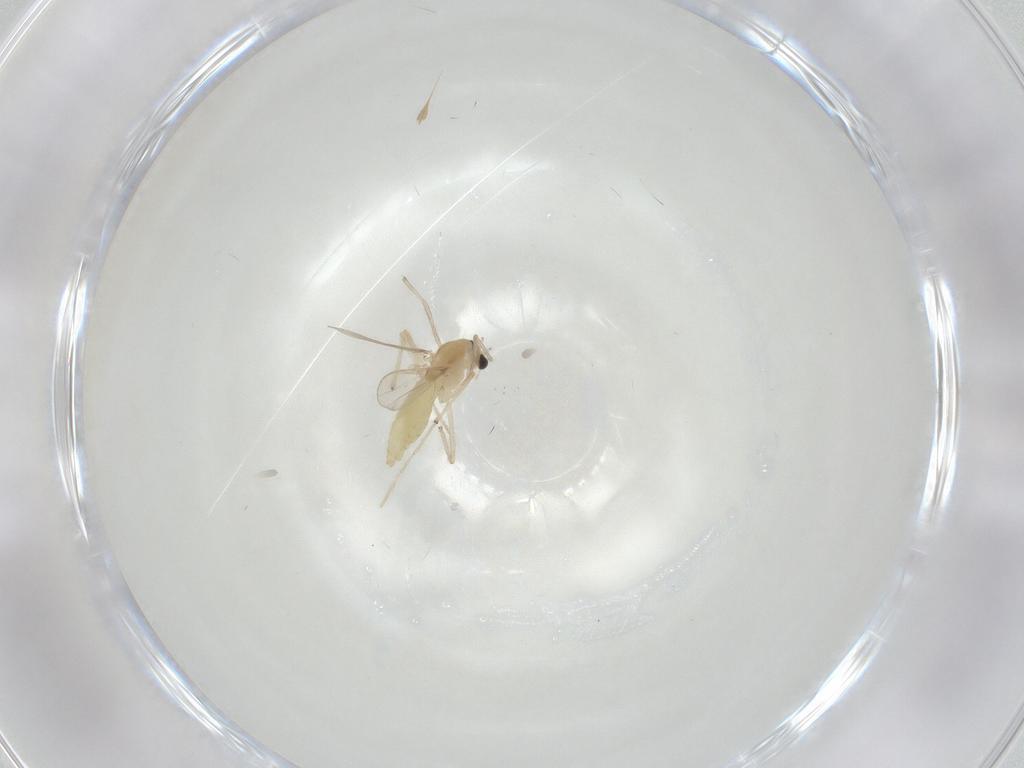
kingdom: Animalia
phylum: Arthropoda
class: Insecta
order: Diptera
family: Chironomidae
